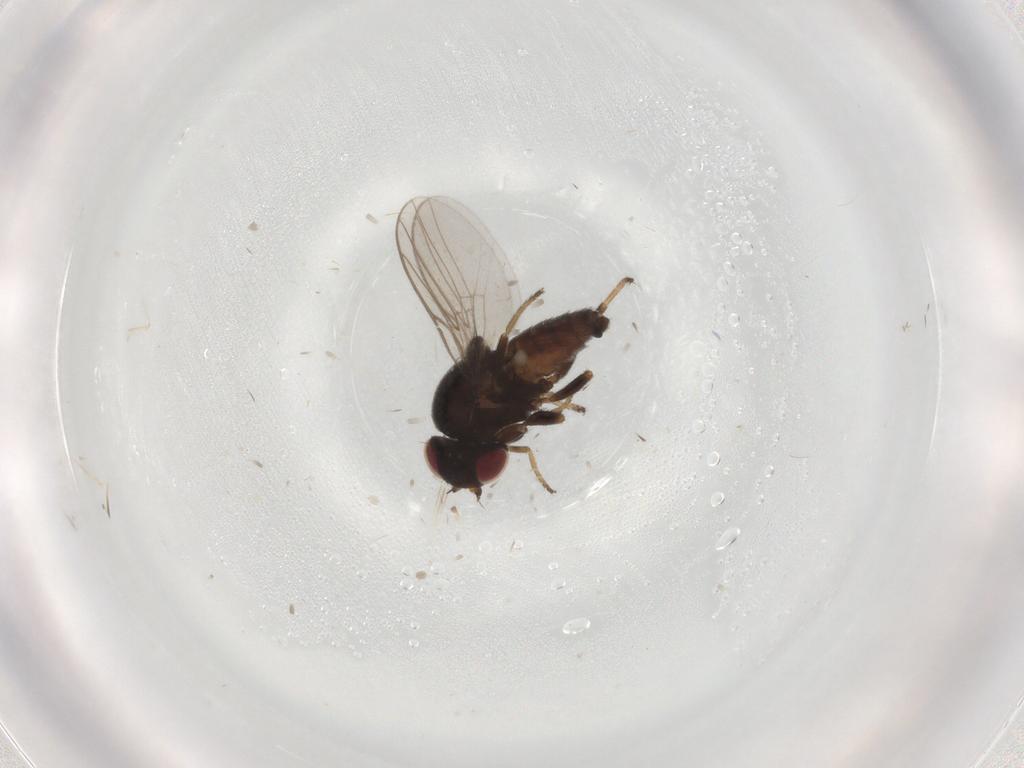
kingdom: Animalia
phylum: Arthropoda
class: Insecta
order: Diptera
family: Chloropidae
